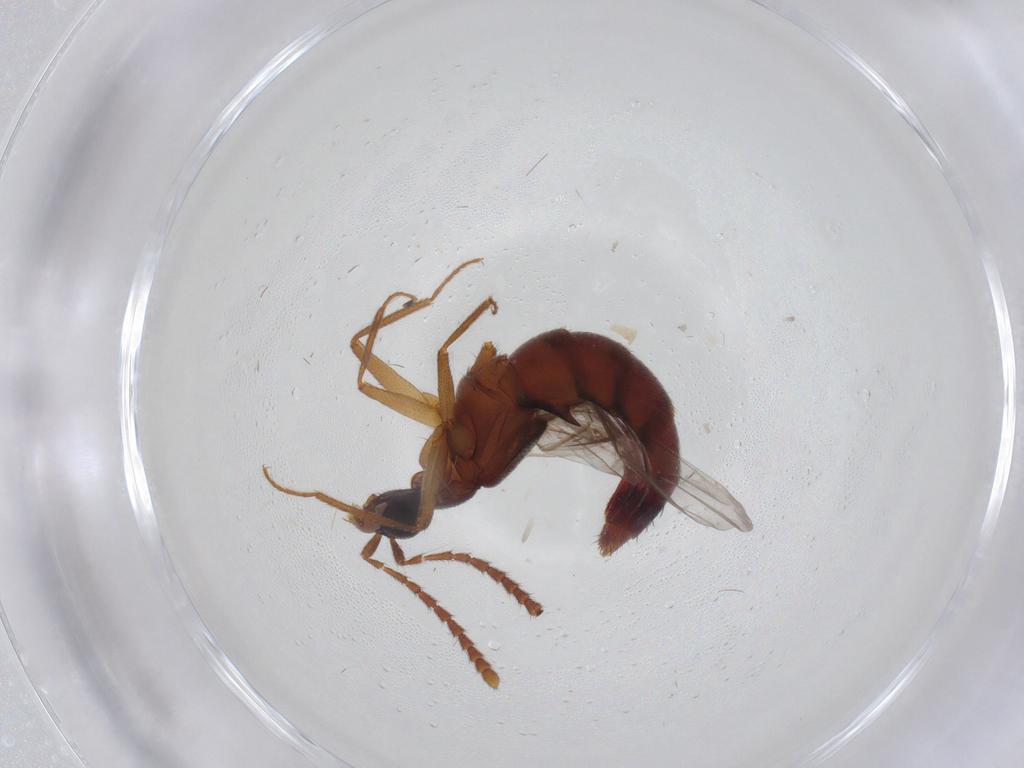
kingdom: Animalia
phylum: Arthropoda
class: Insecta
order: Coleoptera
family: Staphylinidae
